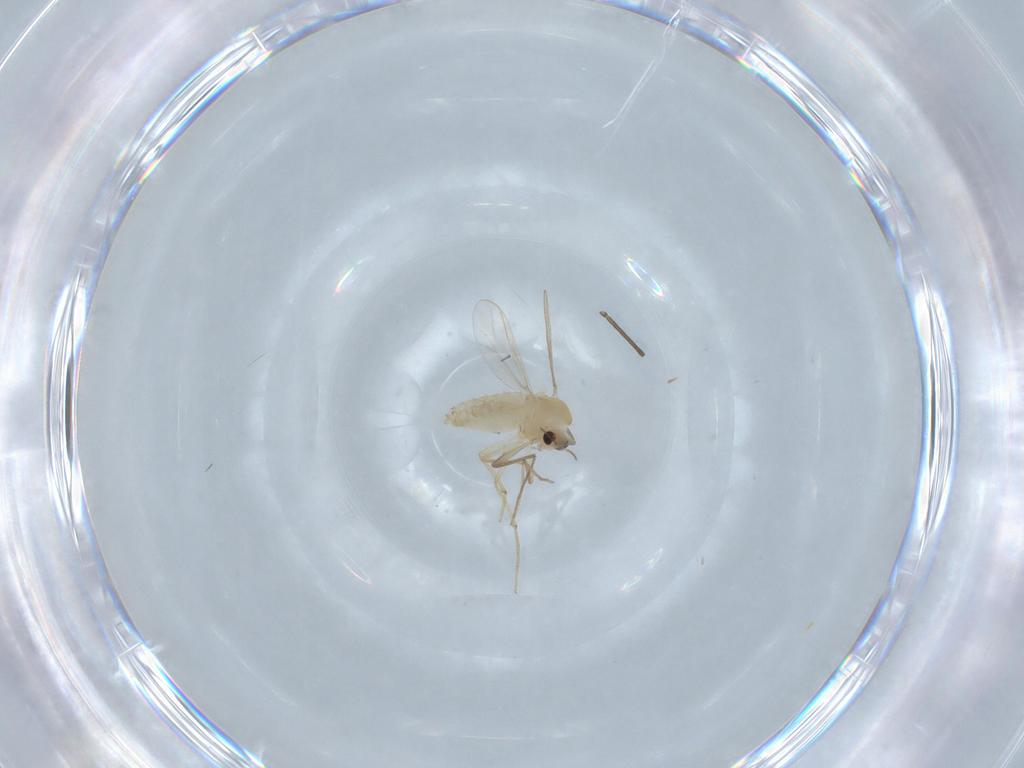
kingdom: Animalia
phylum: Arthropoda
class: Insecta
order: Diptera
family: Chironomidae
